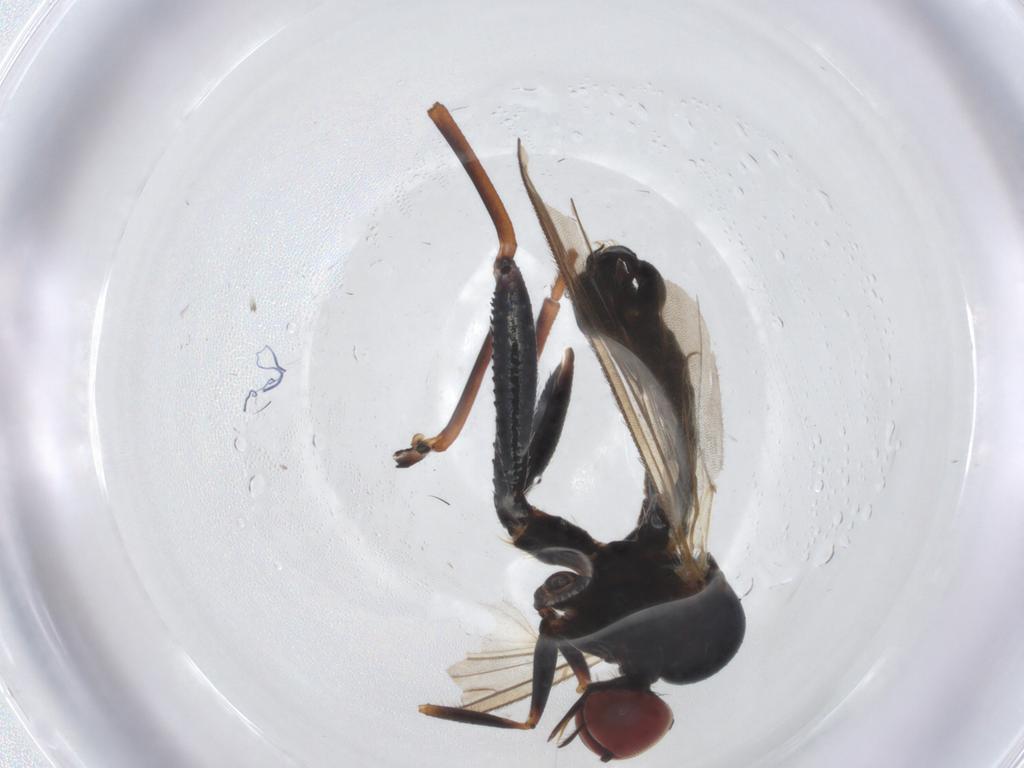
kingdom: Animalia
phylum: Arthropoda
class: Insecta
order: Diptera
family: Hybotidae
